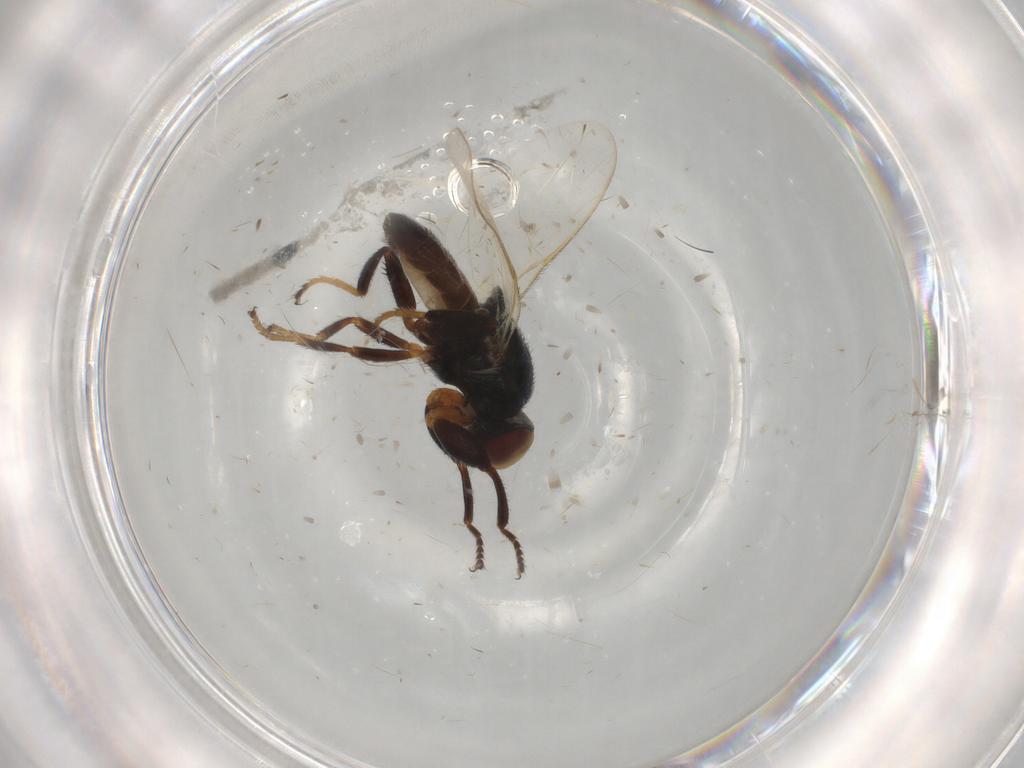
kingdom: Animalia
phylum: Arthropoda
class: Insecta
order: Diptera
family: Chloropidae
